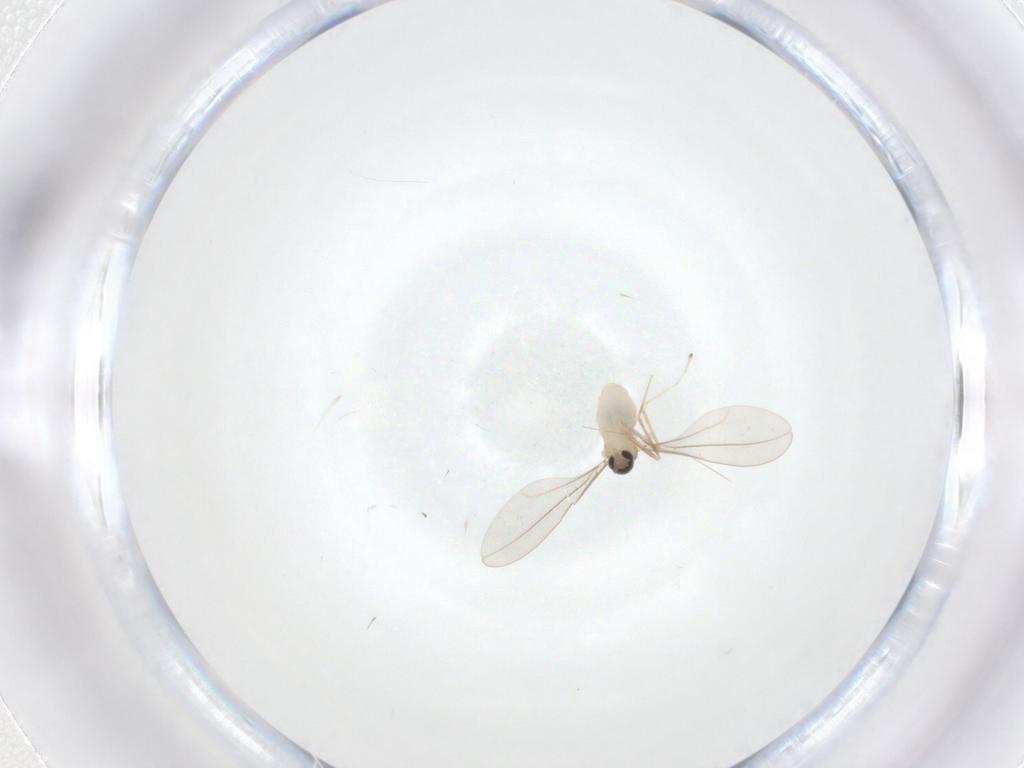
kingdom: Animalia
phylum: Arthropoda
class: Insecta
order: Diptera
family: Cecidomyiidae
